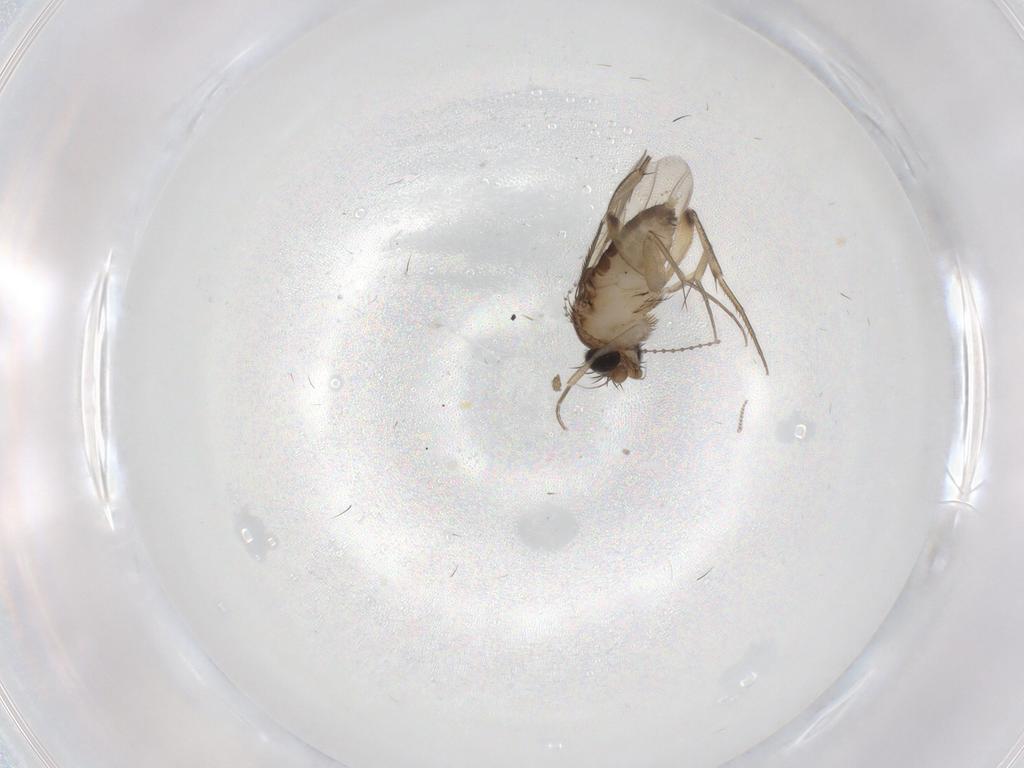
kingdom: Animalia
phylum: Arthropoda
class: Insecta
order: Diptera
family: Phoridae
